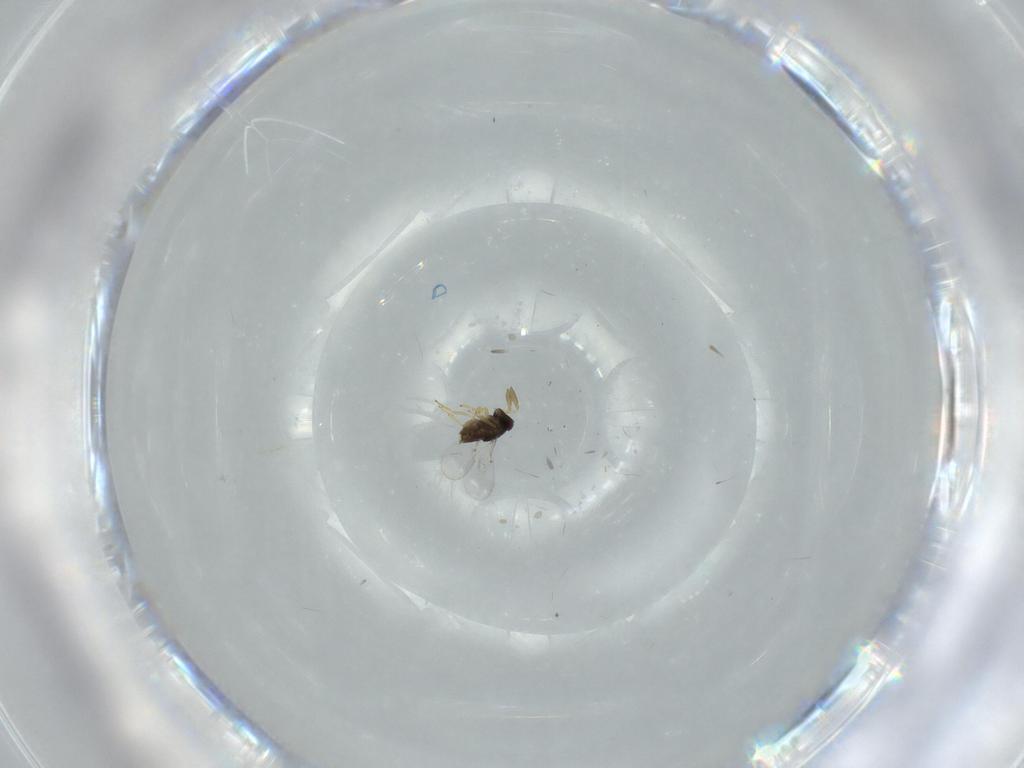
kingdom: Animalia
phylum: Arthropoda
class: Insecta
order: Hymenoptera
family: Encyrtidae
